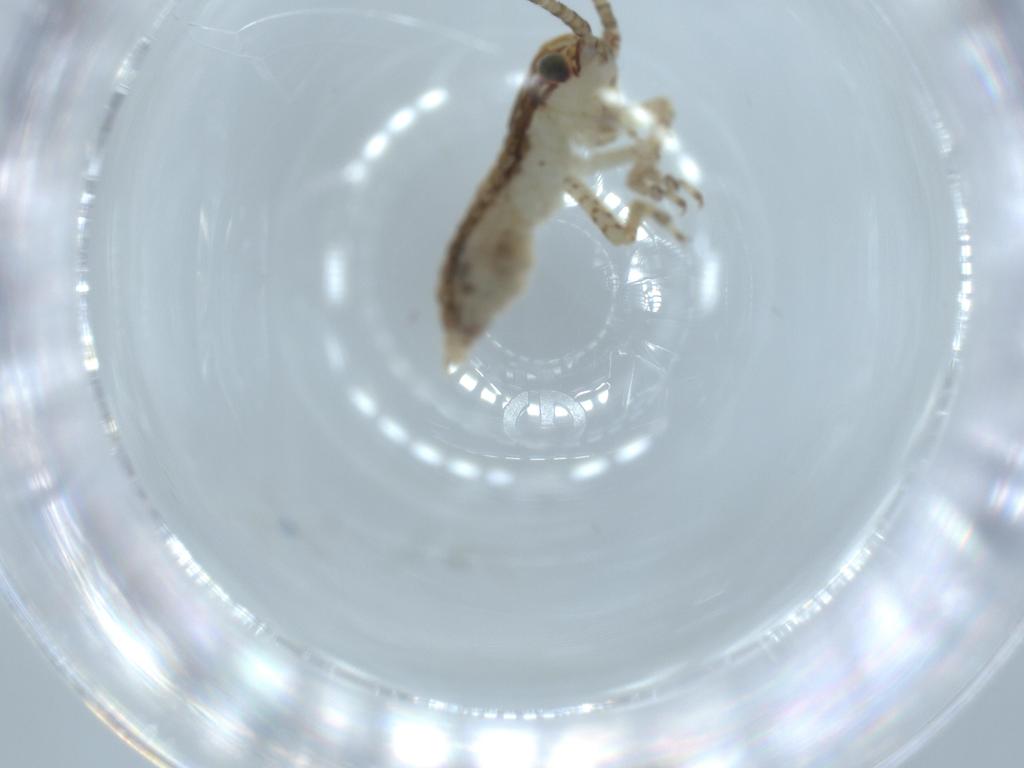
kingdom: Animalia
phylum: Arthropoda
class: Insecta
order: Orthoptera
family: Gryllidae
